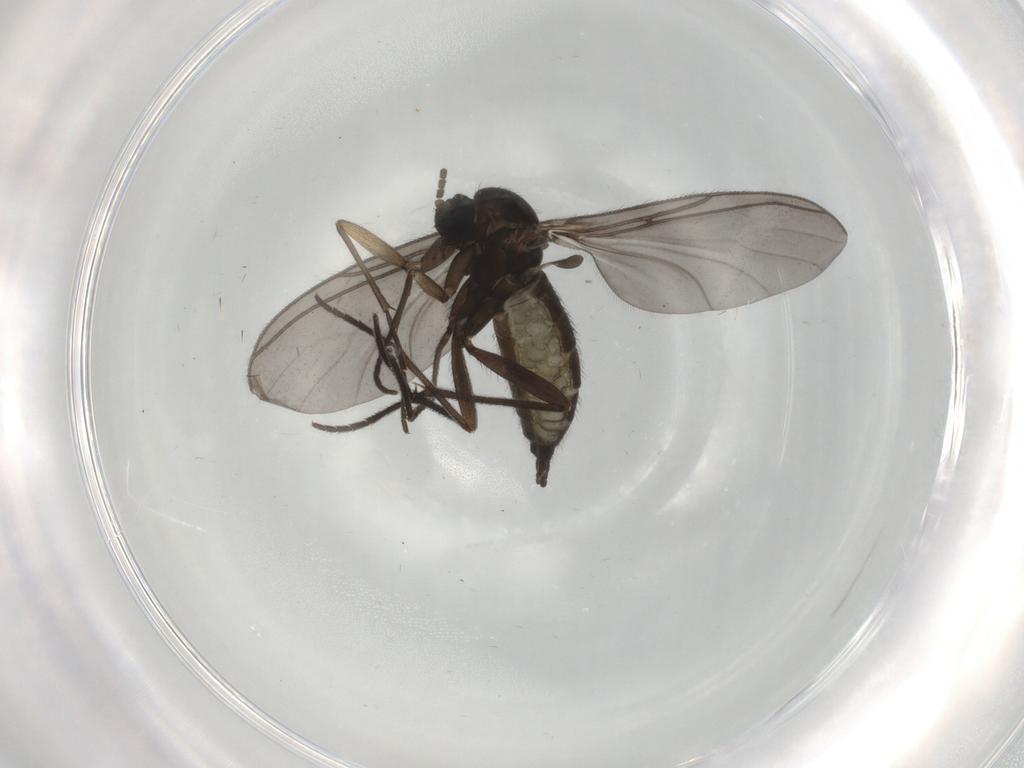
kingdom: Animalia
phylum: Arthropoda
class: Insecta
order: Diptera
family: Sciaridae
